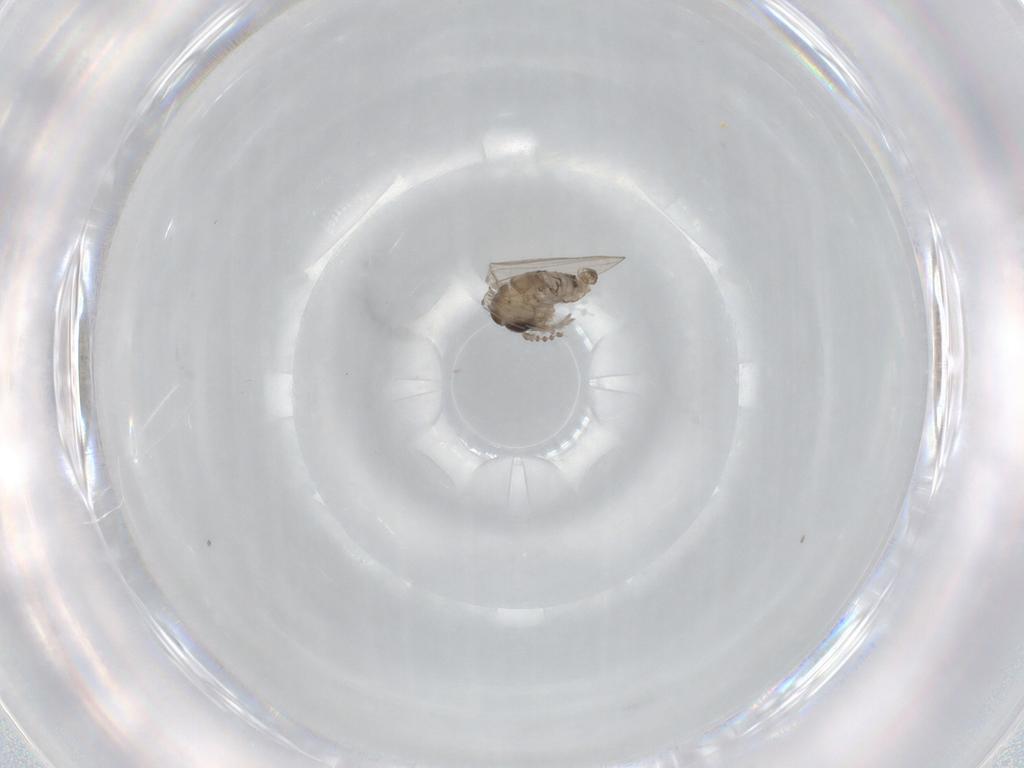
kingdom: Animalia
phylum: Arthropoda
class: Insecta
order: Diptera
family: Psychodidae
